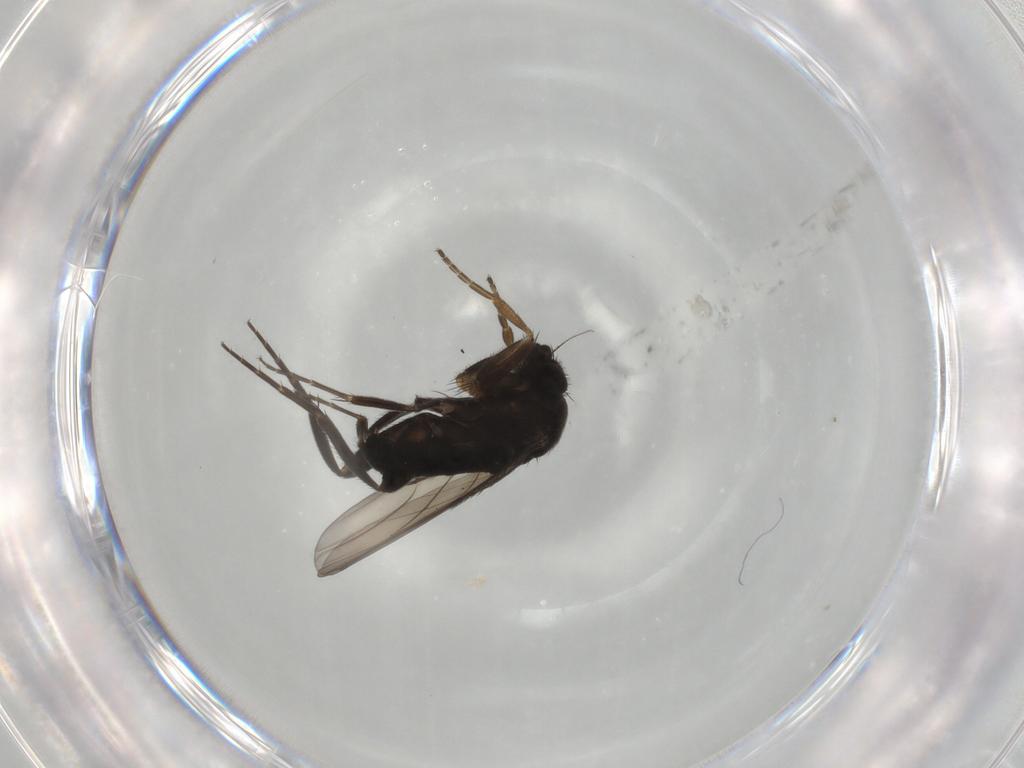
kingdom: Animalia
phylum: Arthropoda
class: Insecta
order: Diptera
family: Phoridae
